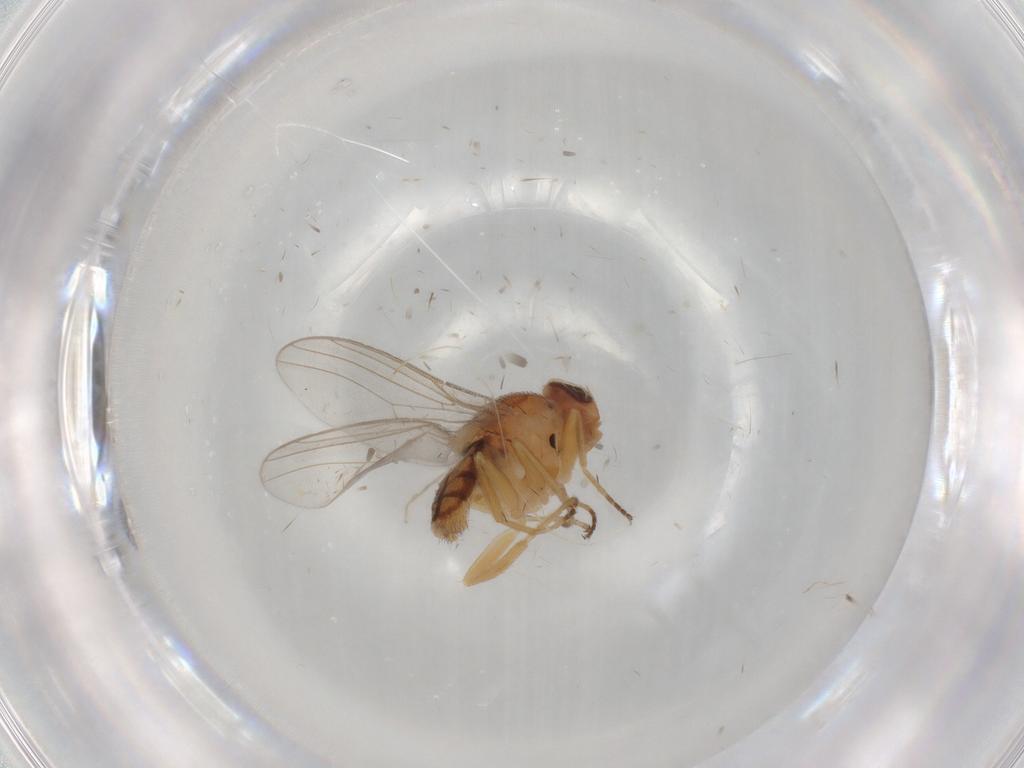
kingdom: Animalia
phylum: Arthropoda
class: Insecta
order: Diptera
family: Chloropidae
